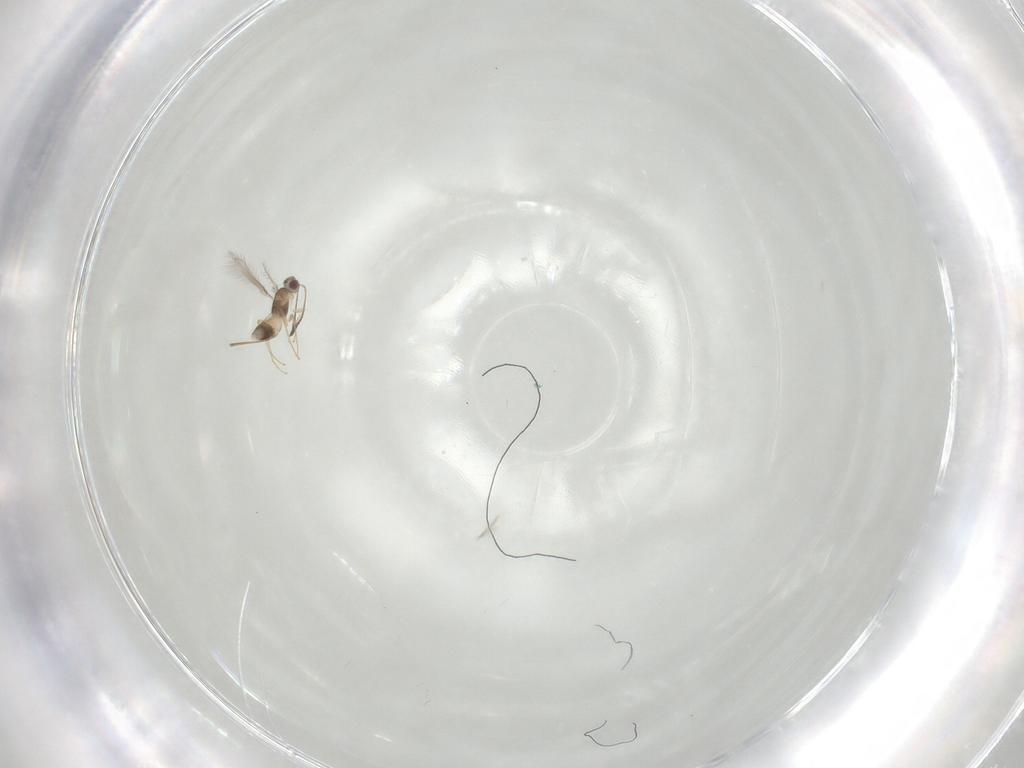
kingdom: Animalia
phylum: Arthropoda
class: Insecta
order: Hymenoptera
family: Mymaridae
